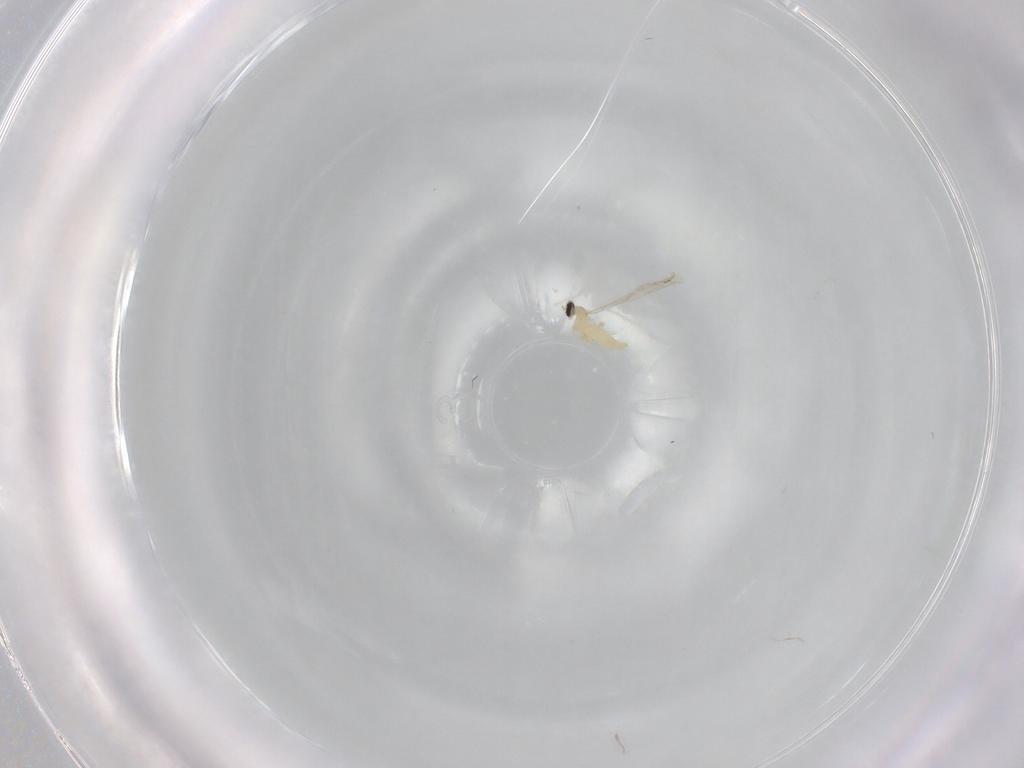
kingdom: Animalia
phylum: Arthropoda
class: Insecta
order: Diptera
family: Cecidomyiidae
